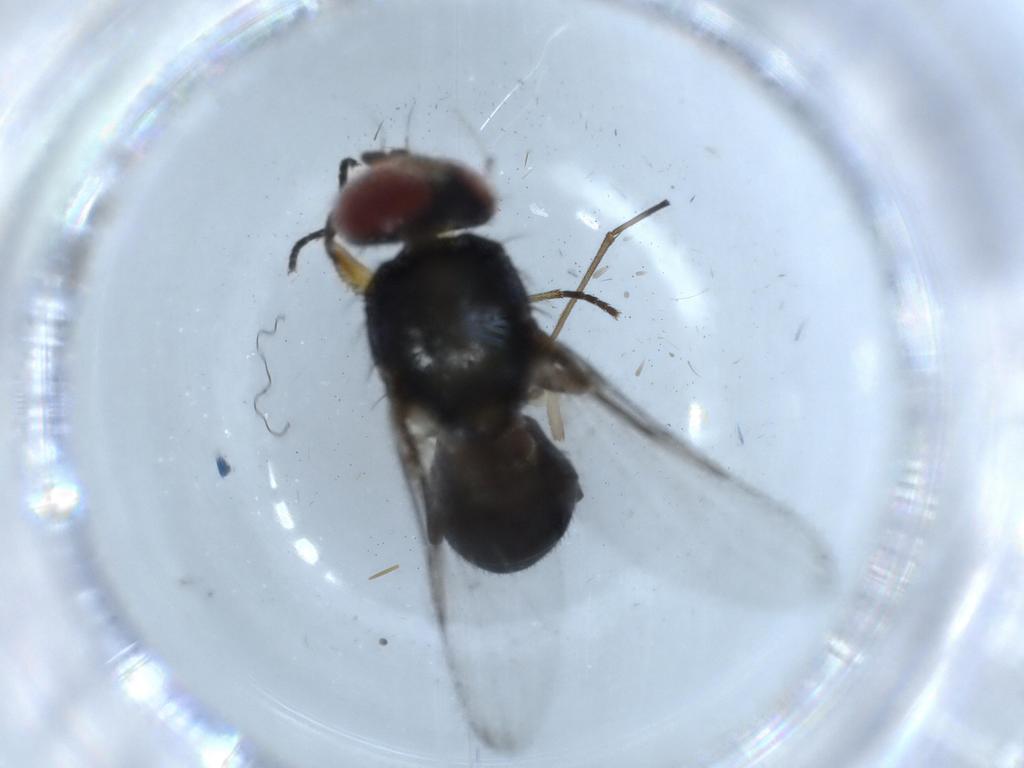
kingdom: Animalia
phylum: Arthropoda
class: Insecta
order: Diptera
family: Ulidiidae
